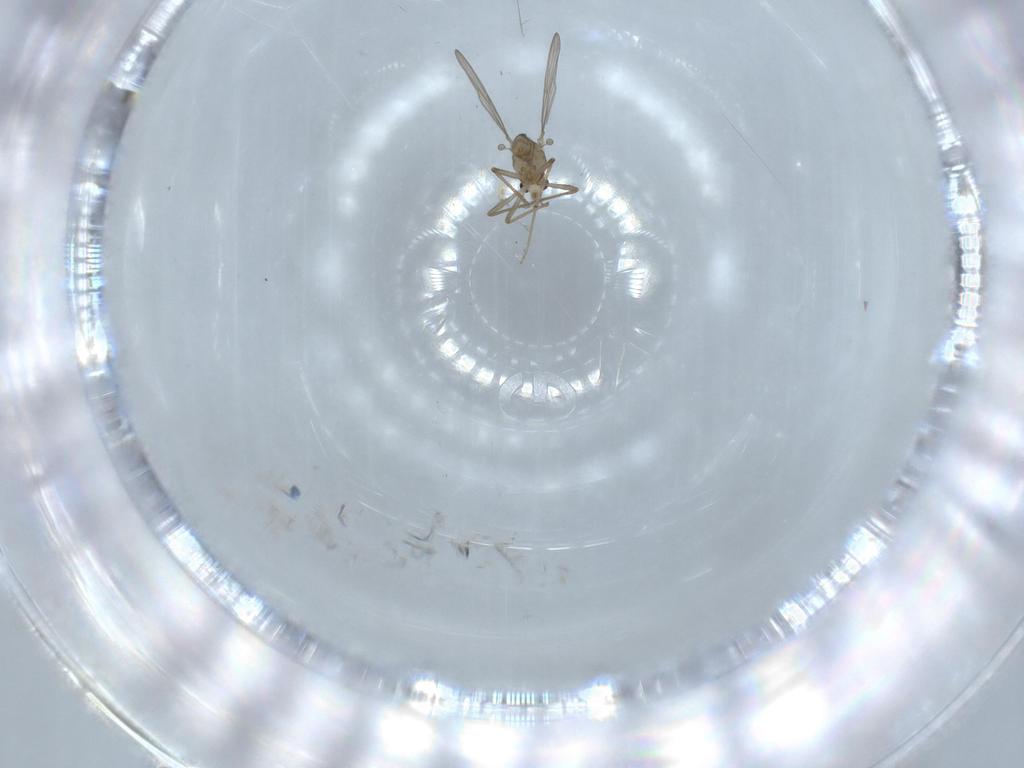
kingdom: Animalia
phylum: Arthropoda
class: Insecta
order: Diptera
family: Chironomidae
